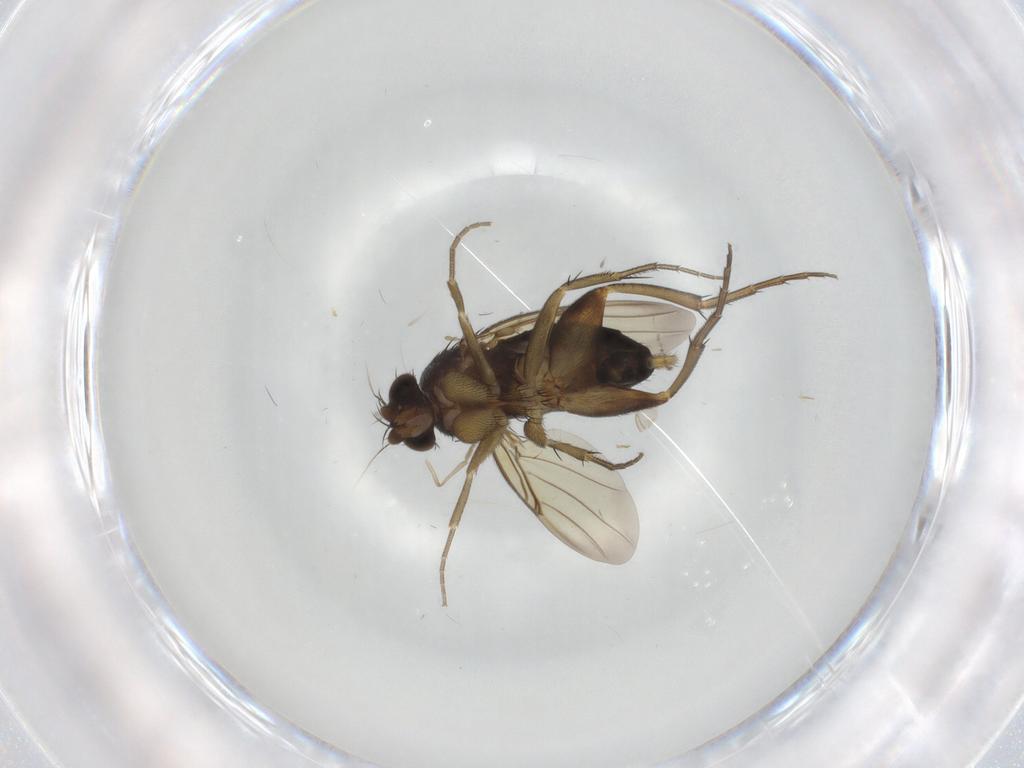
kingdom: Animalia
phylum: Arthropoda
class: Insecta
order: Diptera
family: Phoridae
